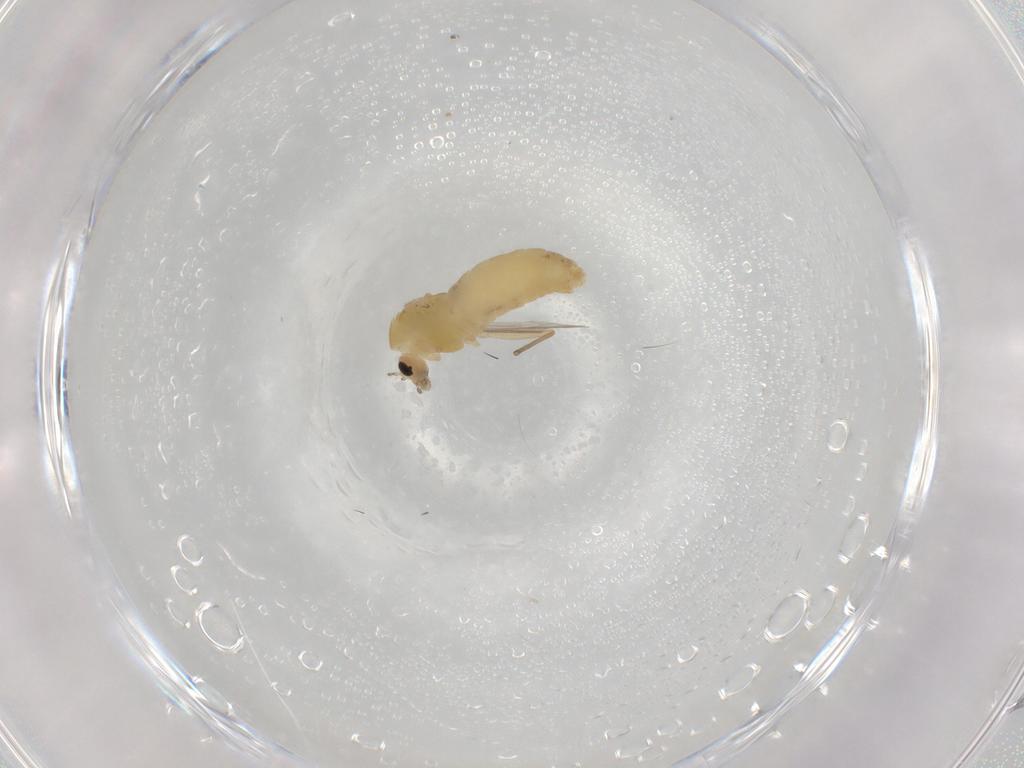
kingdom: Animalia
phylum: Arthropoda
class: Insecta
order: Diptera
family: Chironomidae
